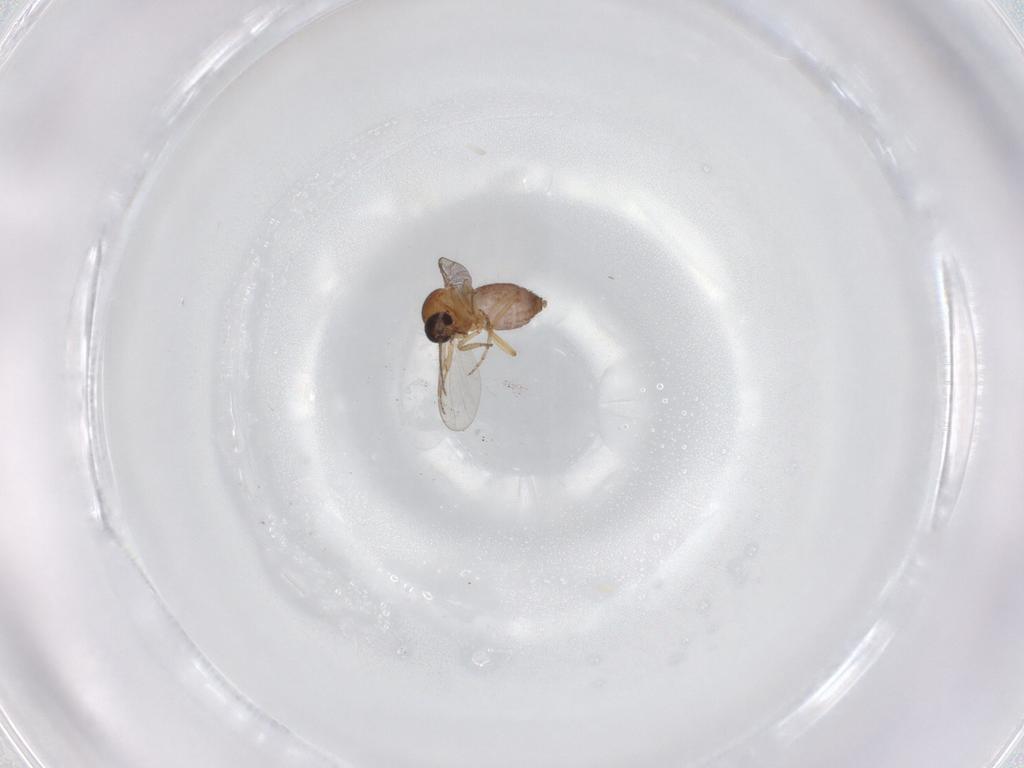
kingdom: Animalia
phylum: Arthropoda
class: Insecta
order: Diptera
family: Sciaridae
